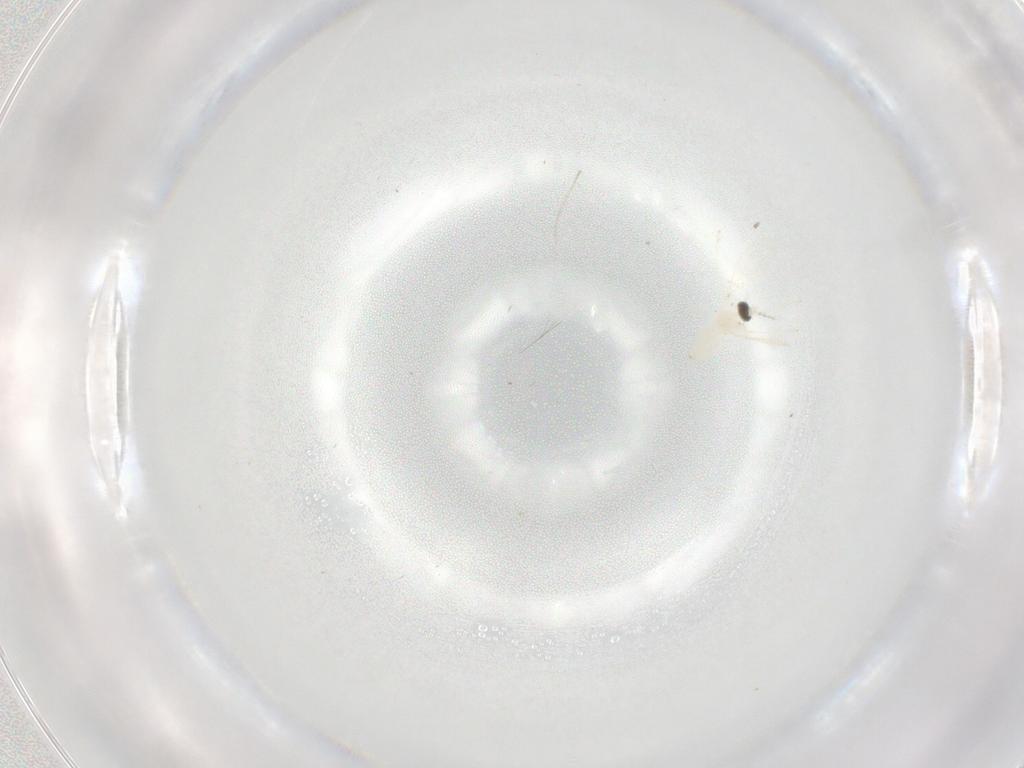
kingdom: Animalia
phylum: Arthropoda
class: Insecta
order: Diptera
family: Cecidomyiidae
